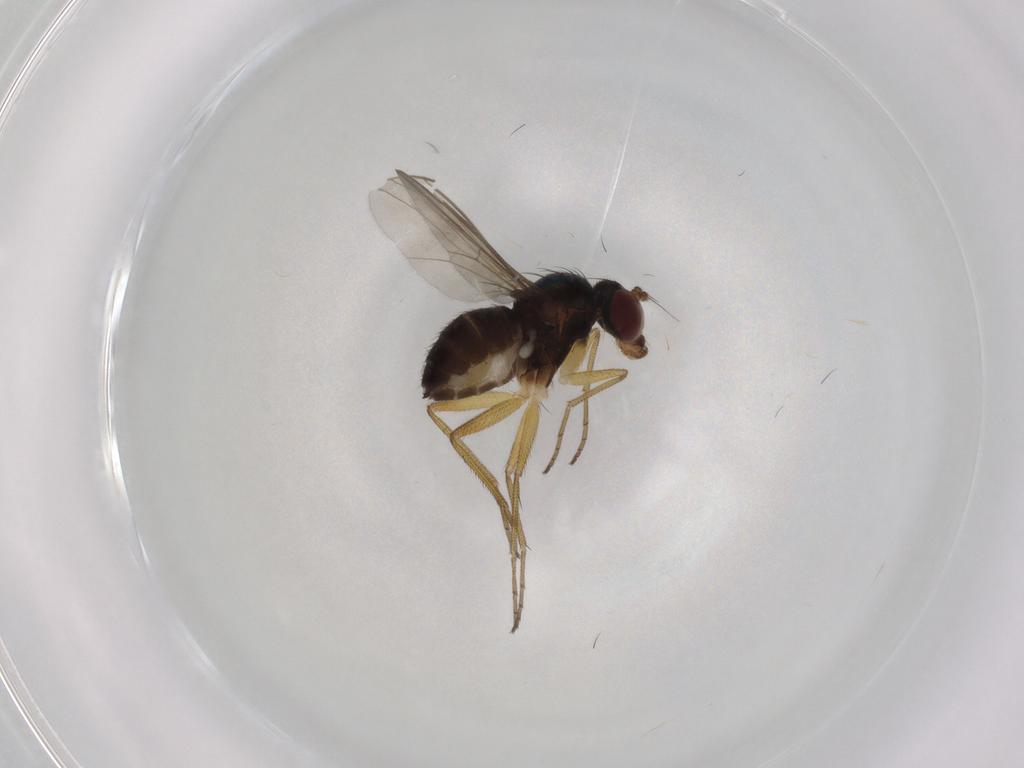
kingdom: Animalia
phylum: Arthropoda
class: Insecta
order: Diptera
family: Dolichopodidae
